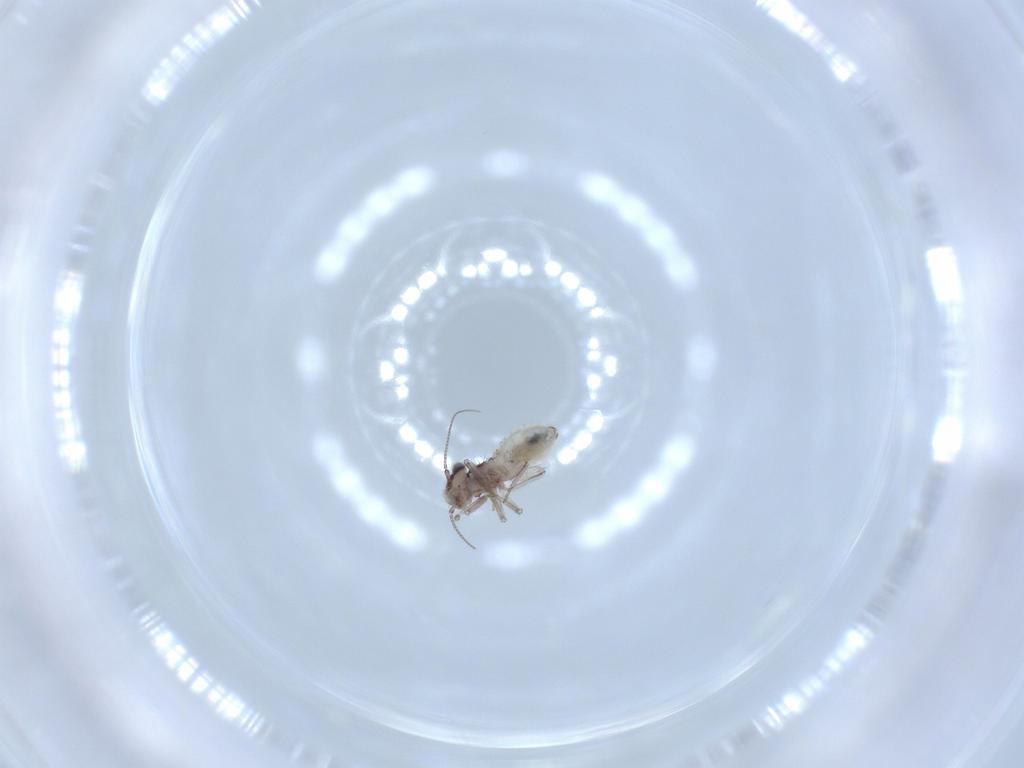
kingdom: Animalia
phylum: Arthropoda
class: Insecta
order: Psocodea
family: Lepidopsocidae
